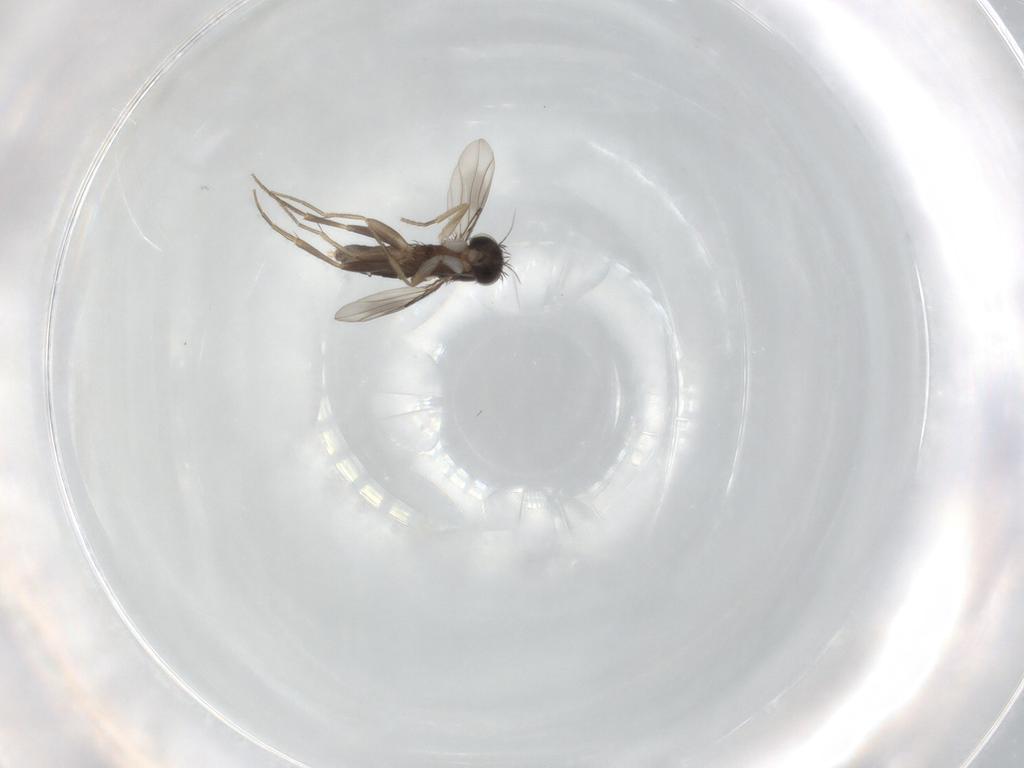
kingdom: Animalia
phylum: Arthropoda
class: Insecta
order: Diptera
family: Phoridae
